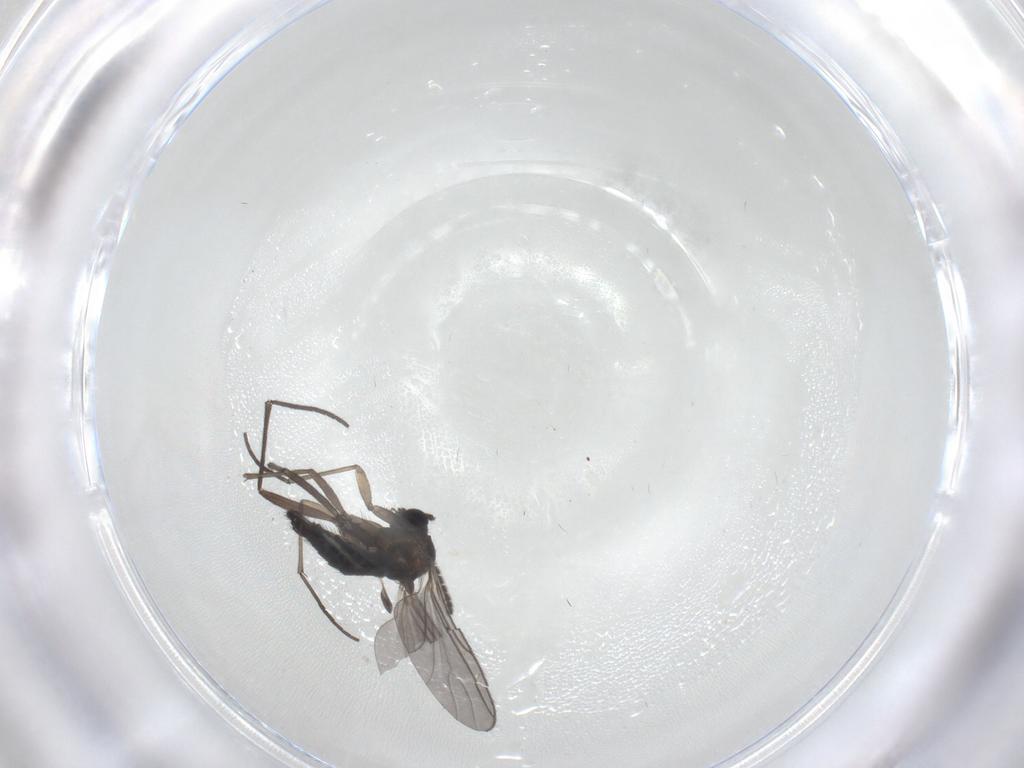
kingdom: Animalia
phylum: Arthropoda
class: Insecta
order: Diptera
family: Sciaridae
